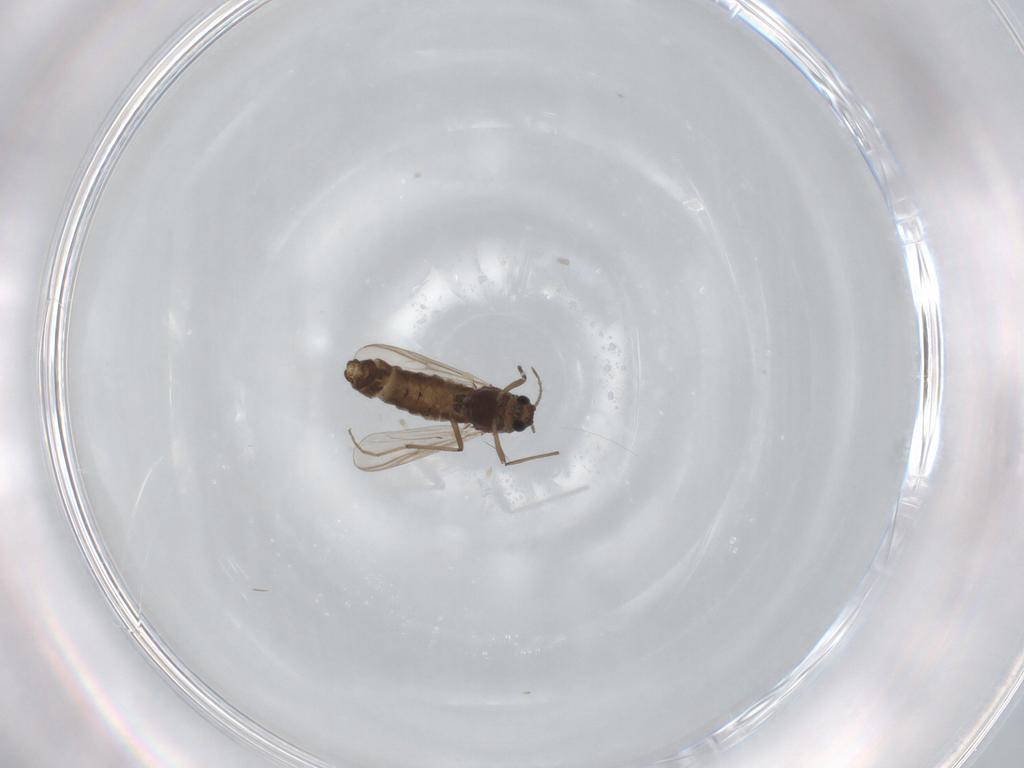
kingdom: Animalia
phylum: Arthropoda
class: Insecta
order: Diptera
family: Chironomidae
